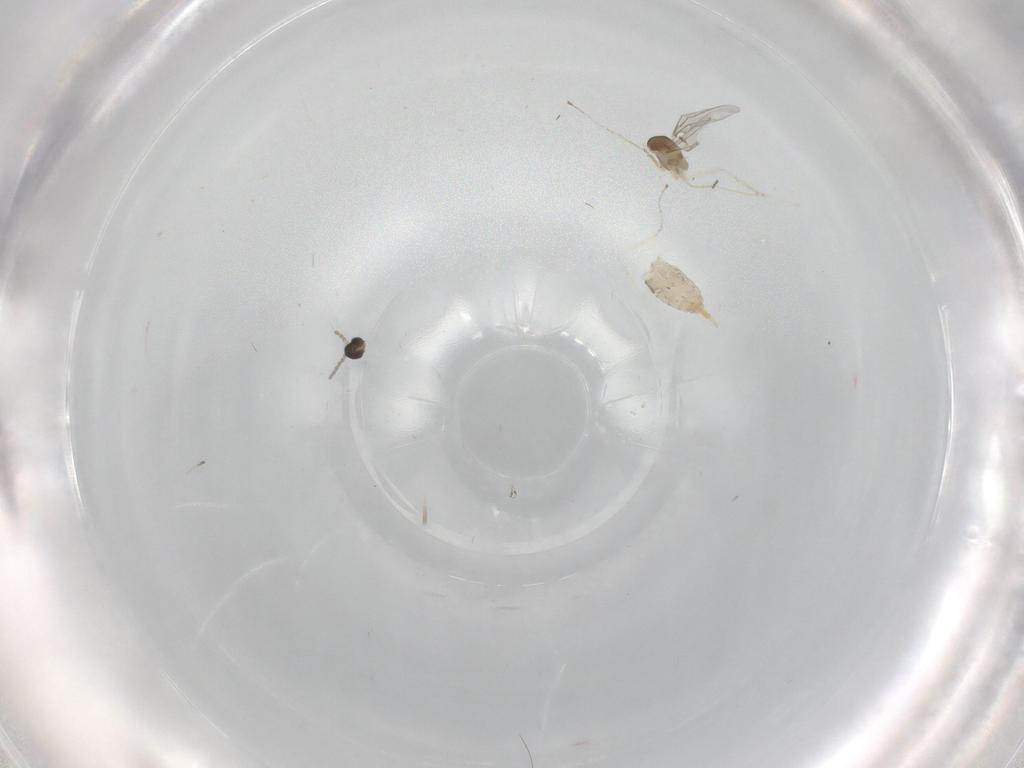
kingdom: Animalia
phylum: Arthropoda
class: Insecta
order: Diptera
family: Cecidomyiidae
